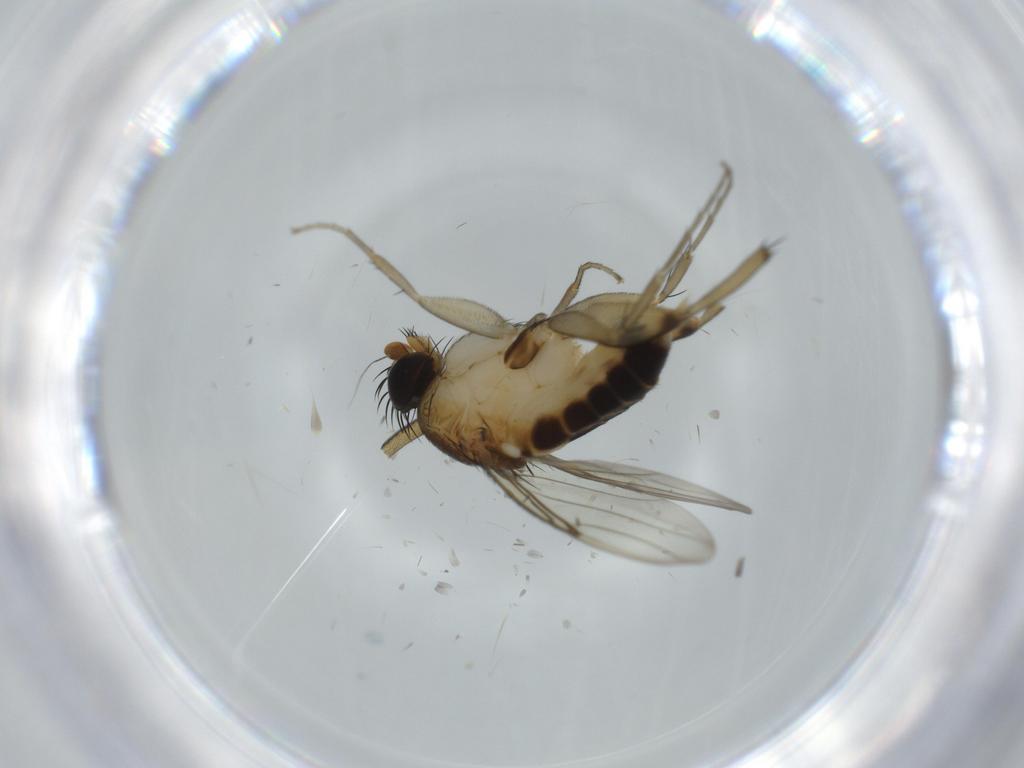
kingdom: Animalia
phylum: Arthropoda
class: Insecta
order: Diptera
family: Phoridae
